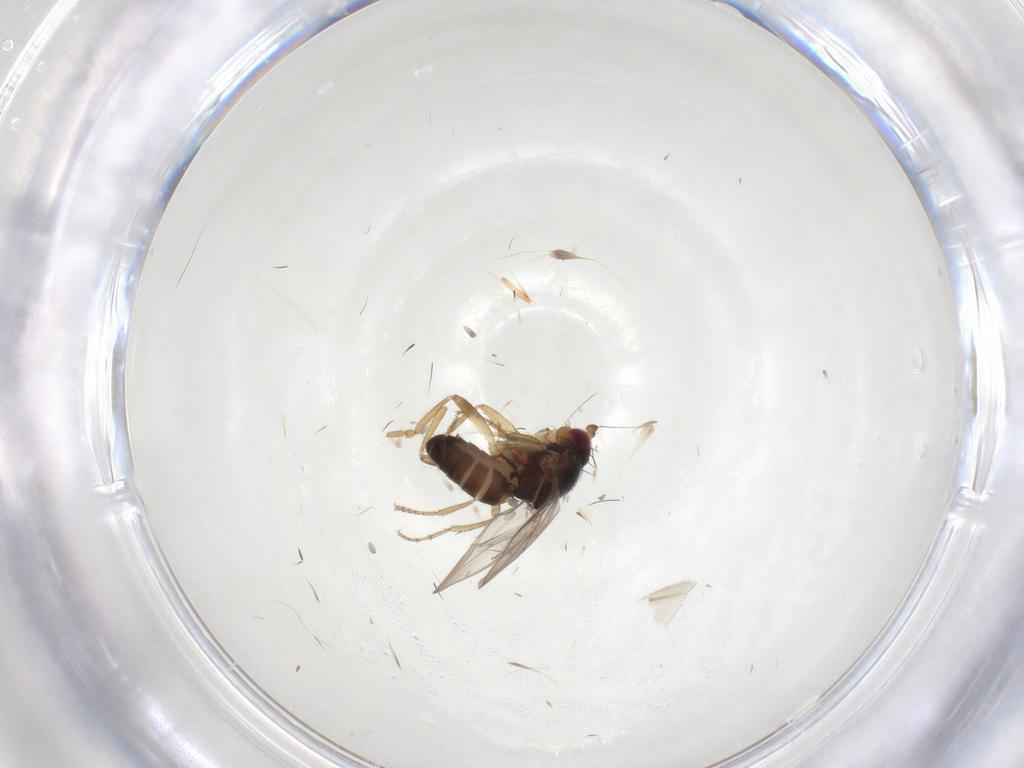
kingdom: Animalia
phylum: Arthropoda
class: Insecta
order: Diptera
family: Sphaeroceridae
